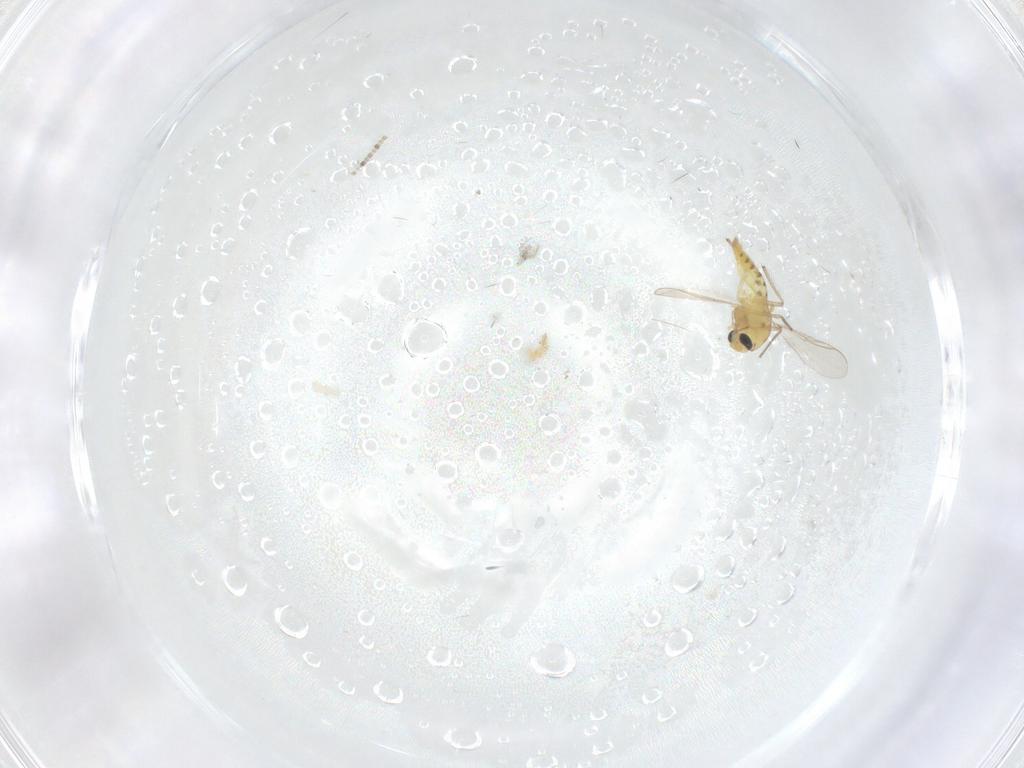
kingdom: Animalia
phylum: Arthropoda
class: Insecta
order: Diptera
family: Chironomidae
